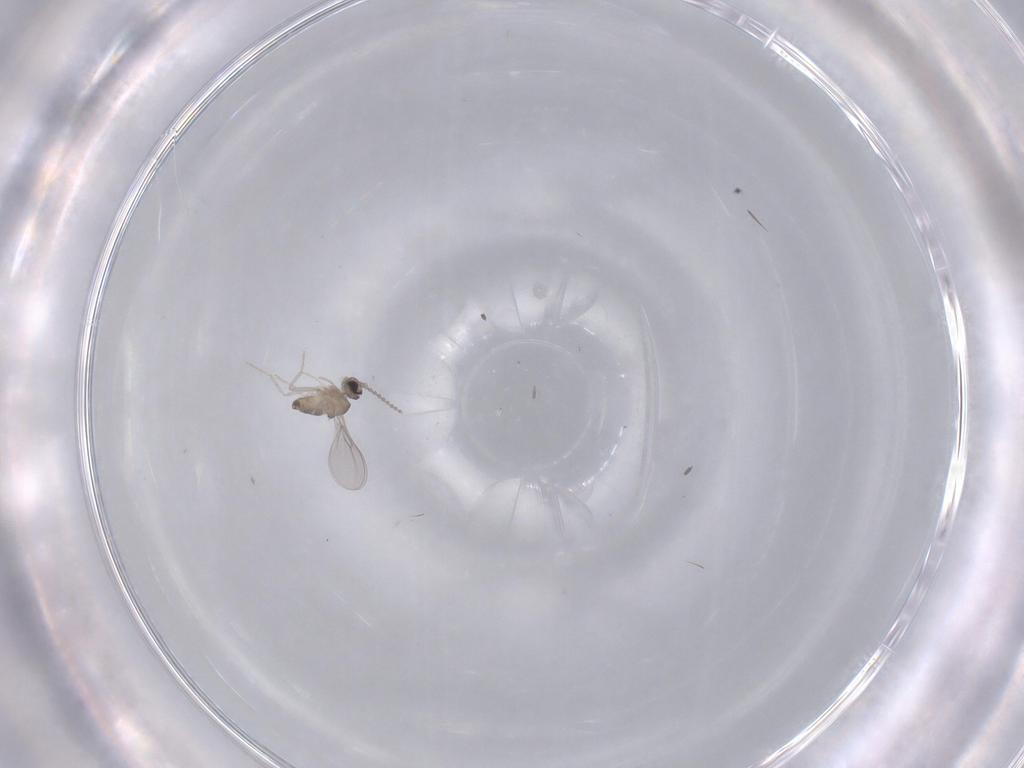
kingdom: Animalia
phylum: Arthropoda
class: Insecta
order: Diptera
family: Cecidomyiidae
